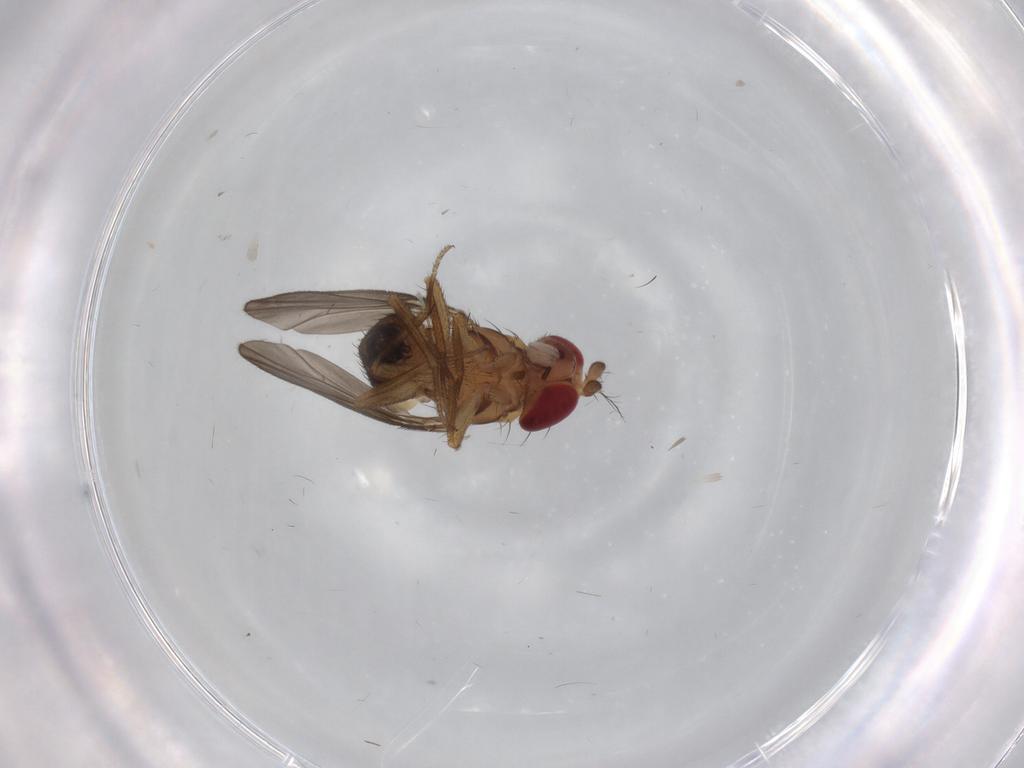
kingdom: Animalia
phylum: Arthropoda
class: Insecta
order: Diptera
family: Drosophilidae
